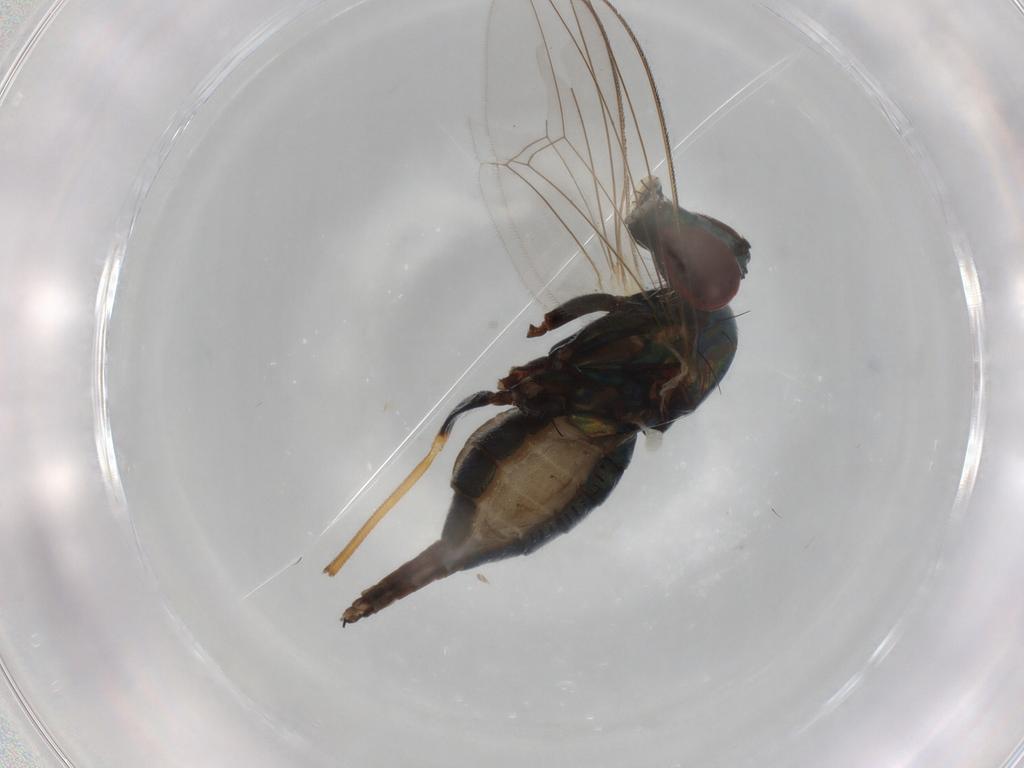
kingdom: Animalia
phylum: Arthropoda
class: Insecta
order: Diptera
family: Dolichopodidae
